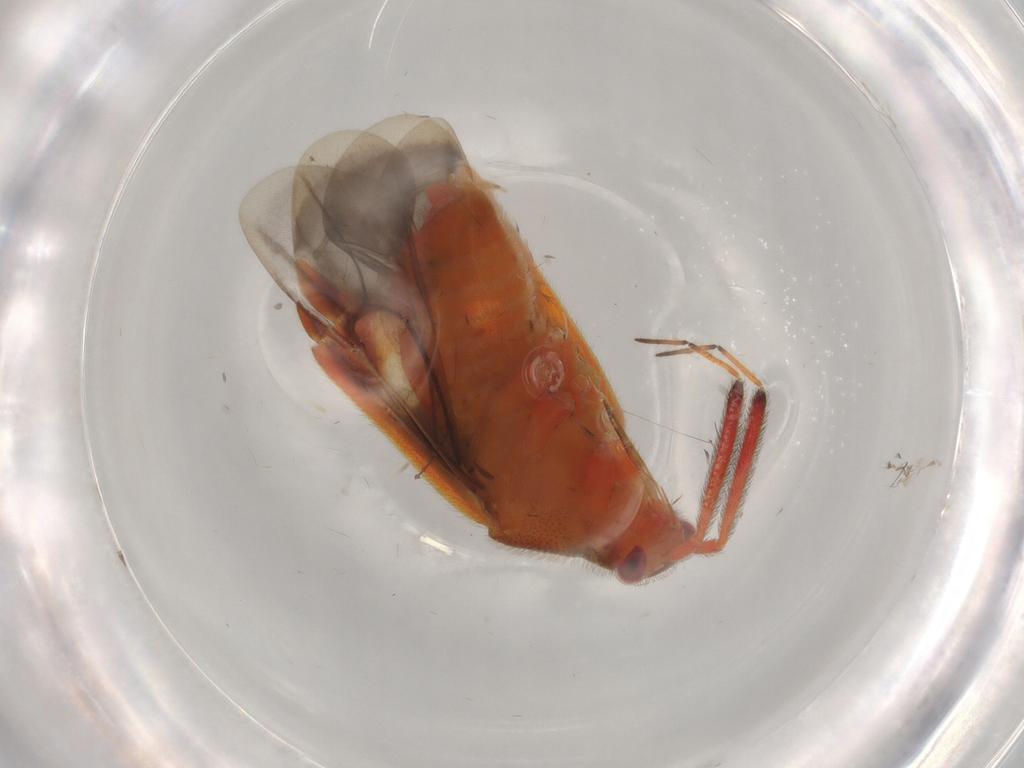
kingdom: Animalia
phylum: Arthropoda
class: Insecta
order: Hemiptera
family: Miridae
